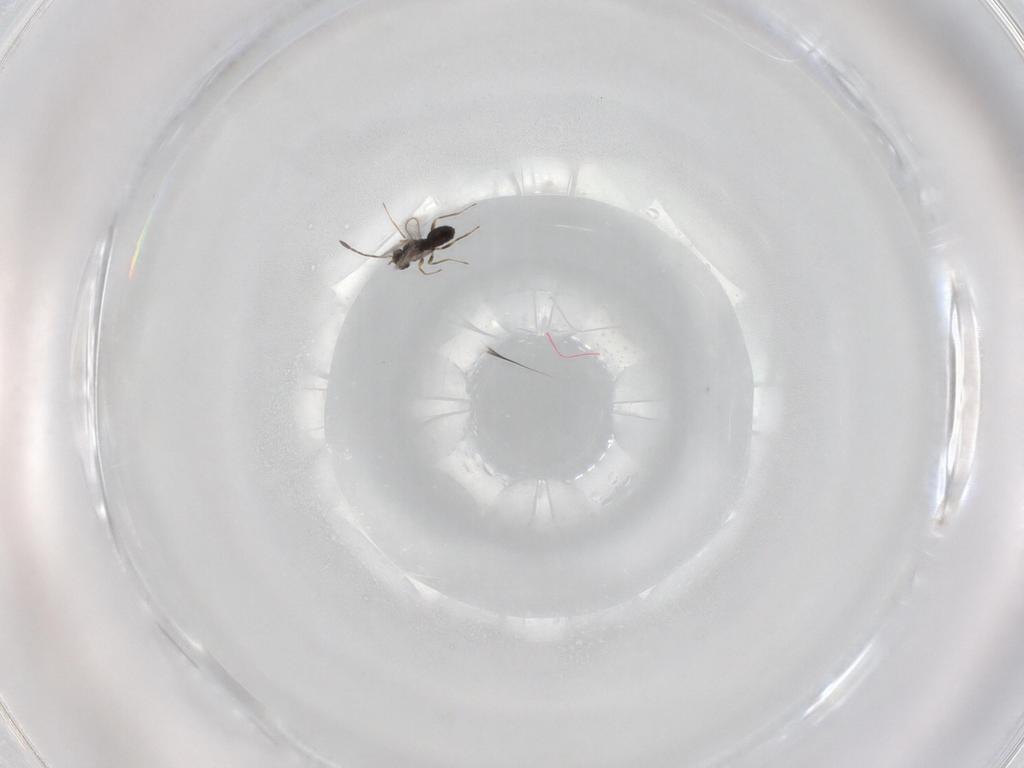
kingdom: Animalia
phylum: Arthropoda
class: Insecta
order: Hymenoptera
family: Mymaridae
